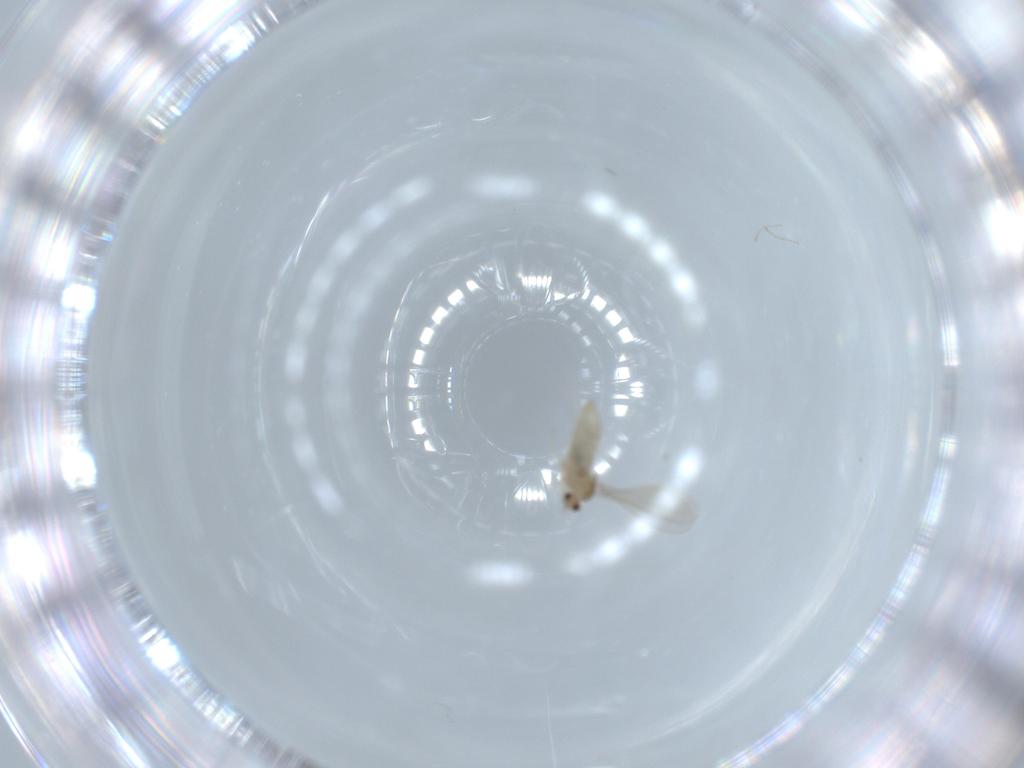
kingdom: Animalia
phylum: Arthropoda
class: Insecta
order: Diptera
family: Cecidomyiidae
